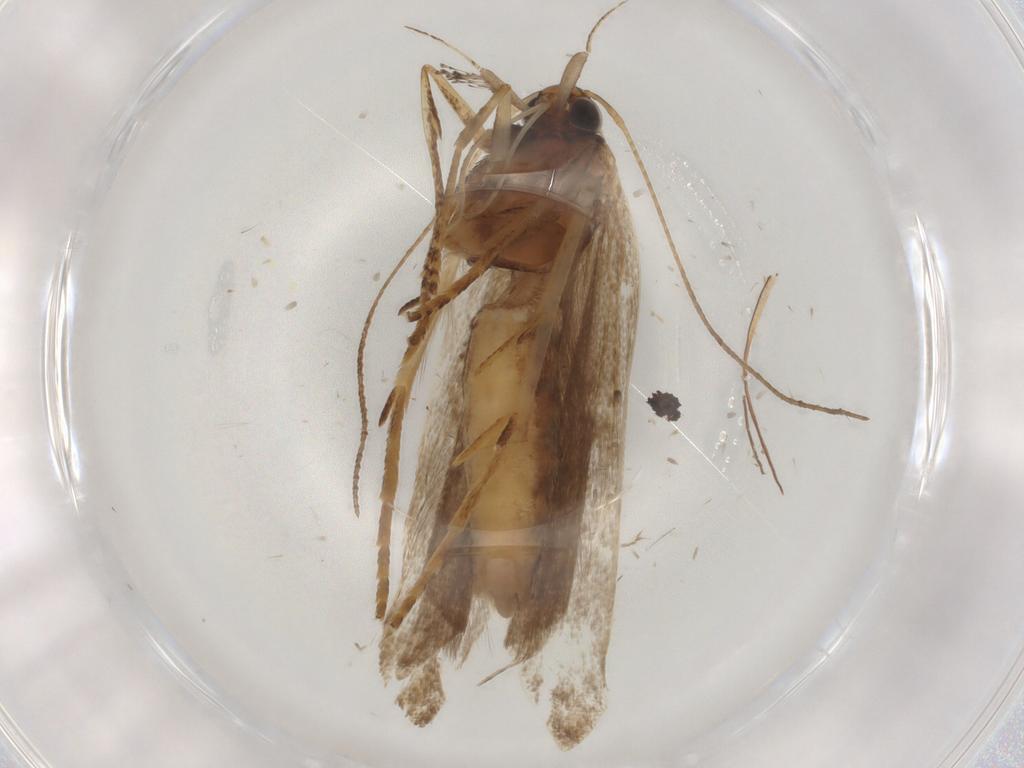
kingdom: Animalia
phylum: Arthropoda
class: Insecta
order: Lepidoptera
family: Gelechiidae
